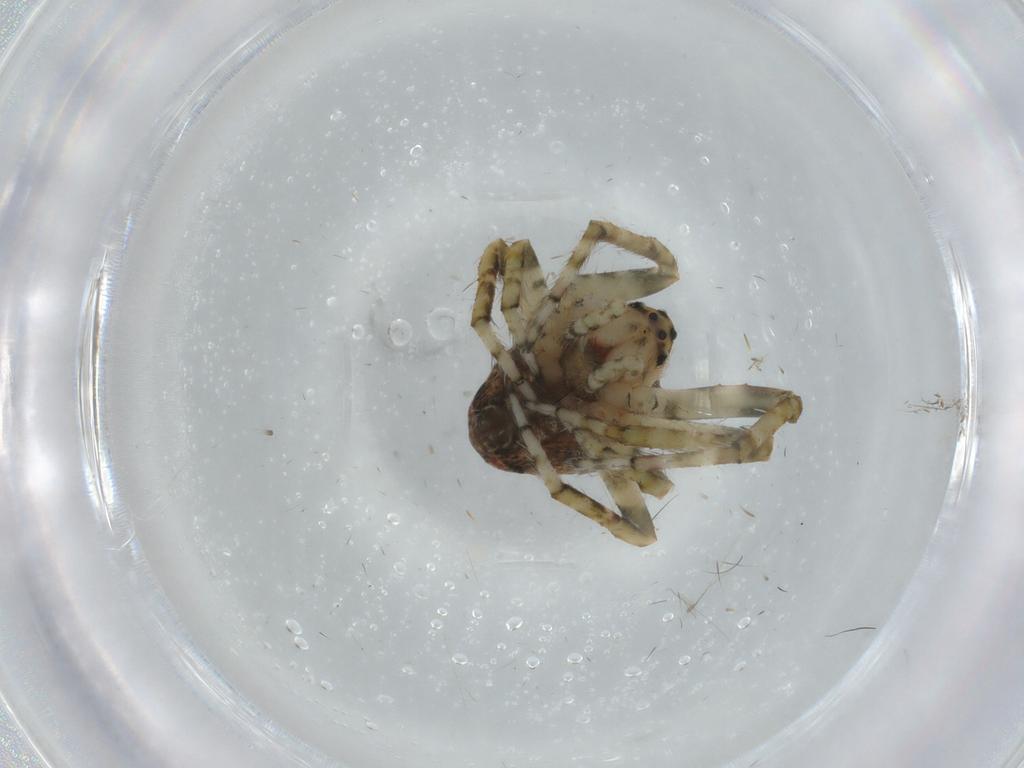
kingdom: Animalia
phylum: Arthropoda
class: Arachnida
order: Araneae
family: Araneidae
